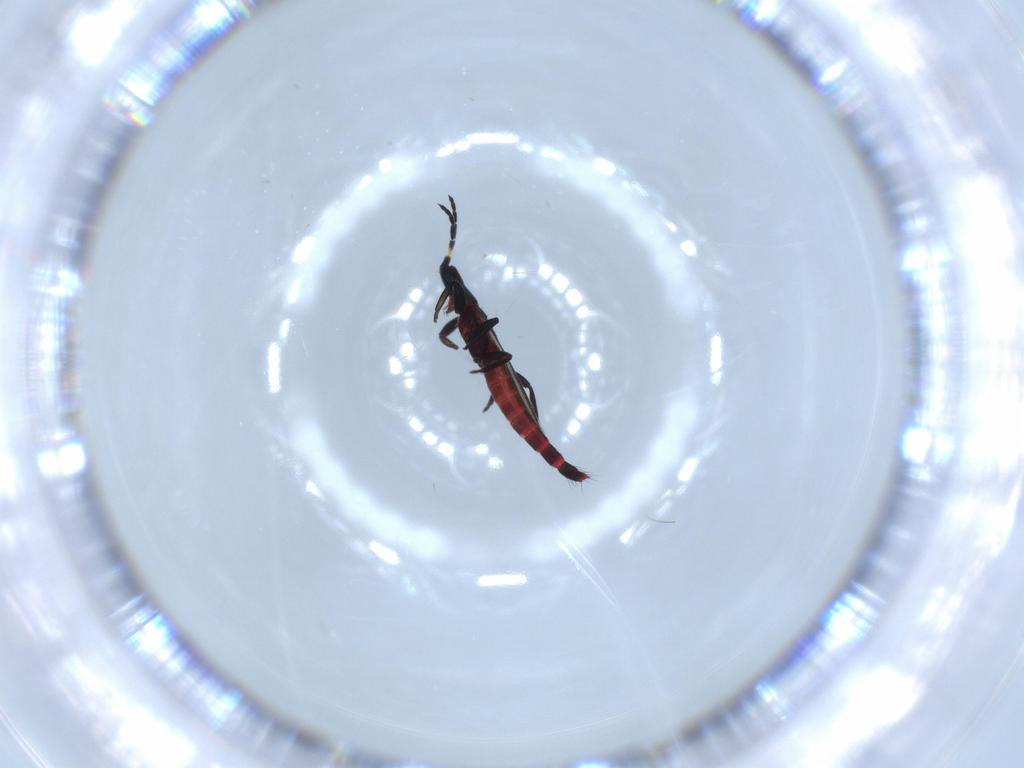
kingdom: Animalia
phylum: Arthropoda
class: Insecta
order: Thysanoptera
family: Aeolothripidae
